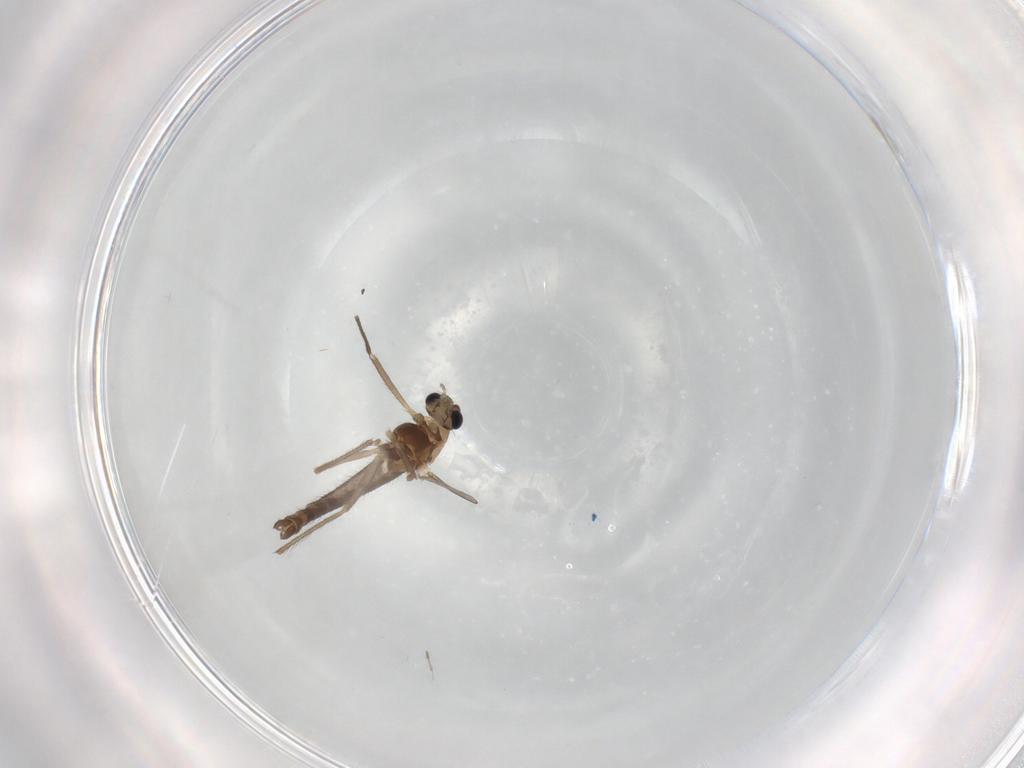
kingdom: Animalia
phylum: Arthropoda
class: Insecta
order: Diptera
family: Chironomidae
